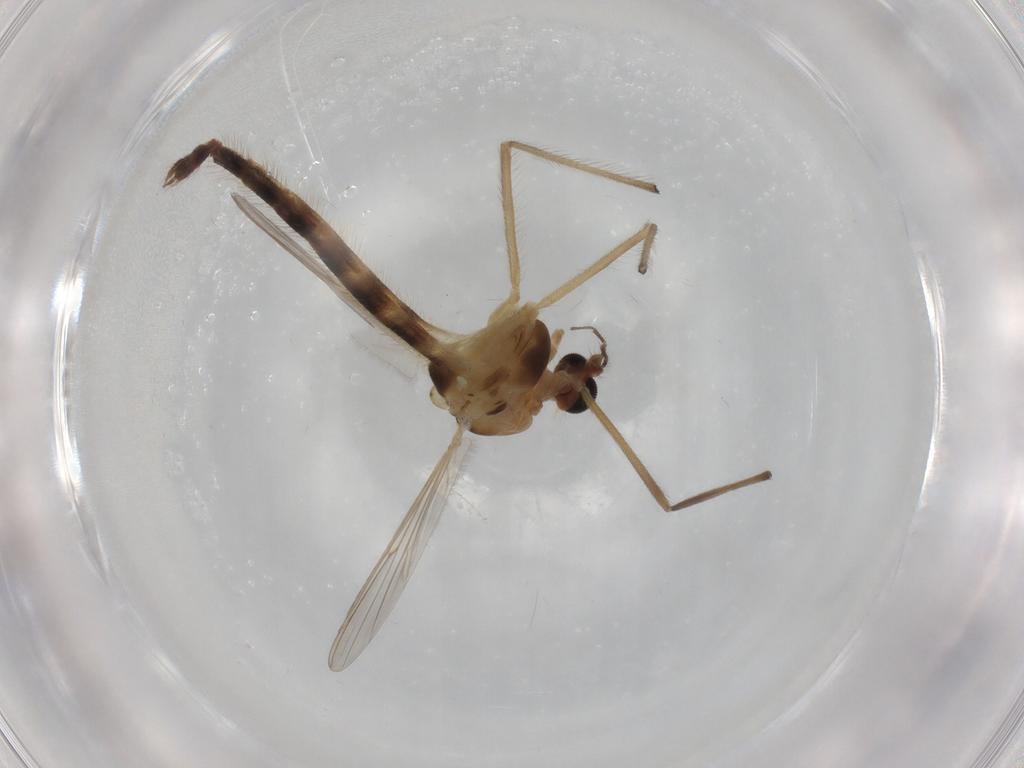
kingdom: Animalia
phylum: Arthropoda
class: Insecta
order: Diptera
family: Chironomidae
